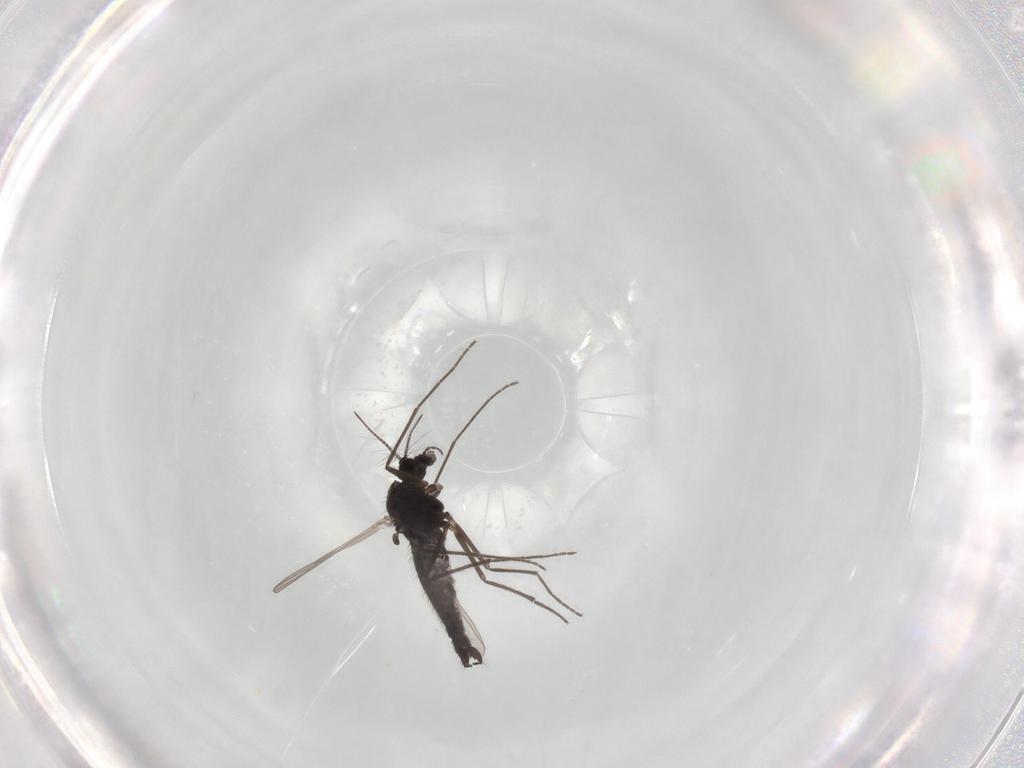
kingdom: Animalia
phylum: Arthropoda
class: Insecta
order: Diptera
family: Chironomidae
